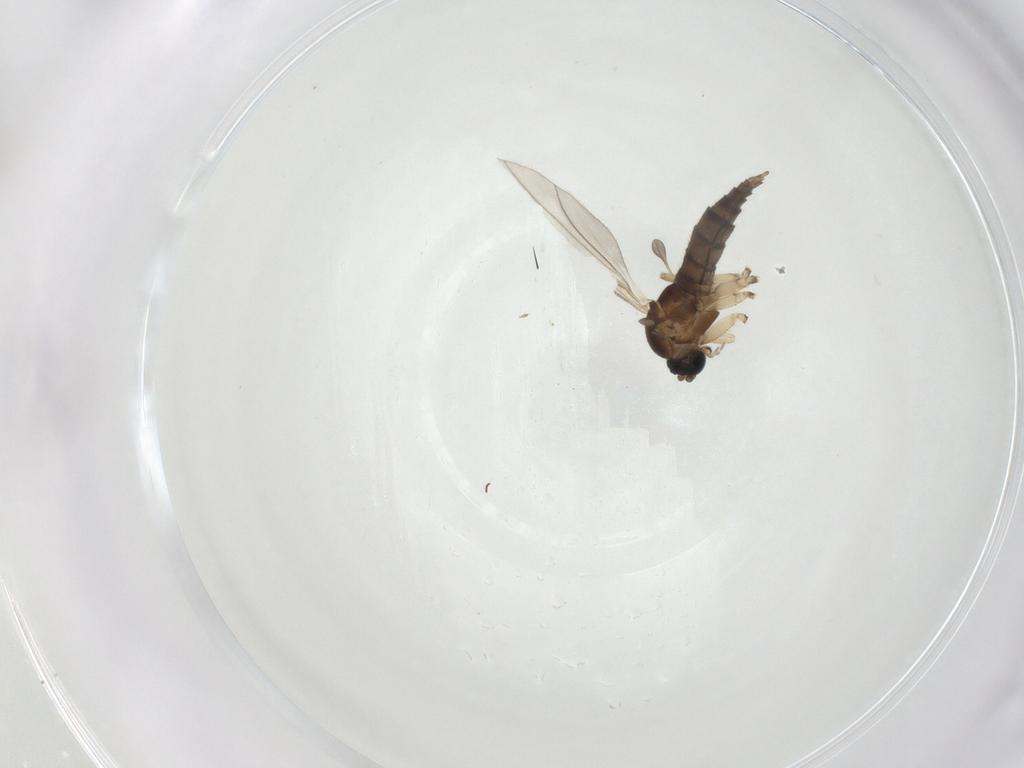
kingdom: Animalia
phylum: Arthropoda
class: Insecta
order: Diptera
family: Sciaridae
